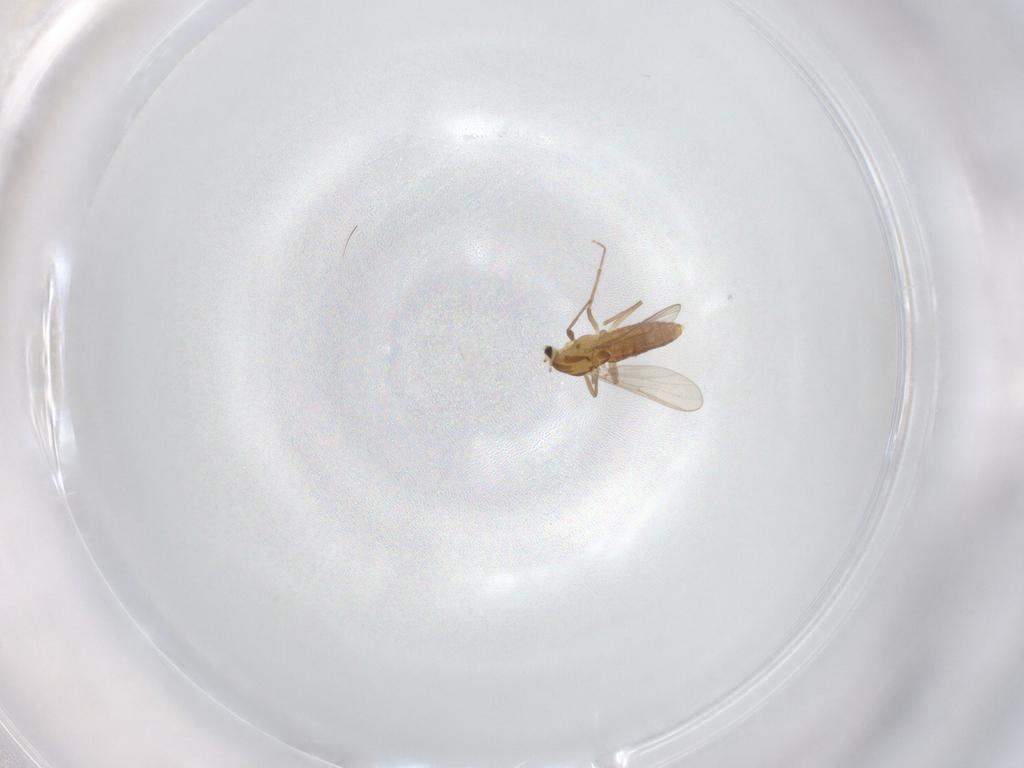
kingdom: Animalia
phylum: Arthropoda
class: Insecta
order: Diptera
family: Chironomidae
